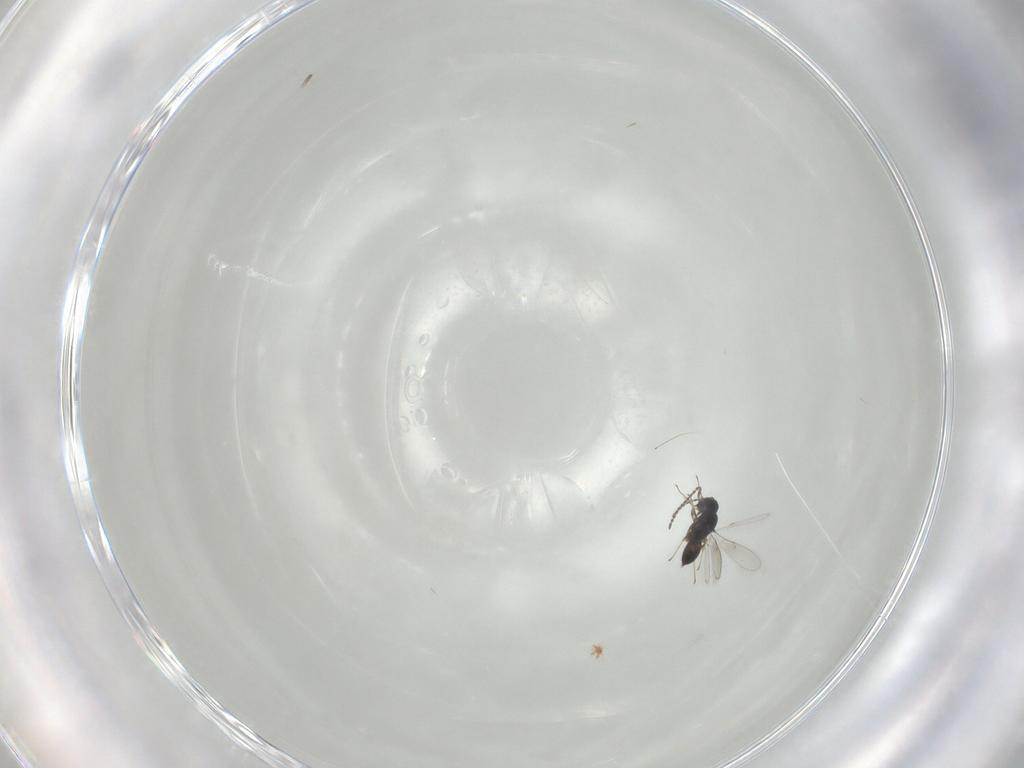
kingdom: Animalia
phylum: Arthropoda
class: Insecta
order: Hymenoptera
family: Scelionidae
